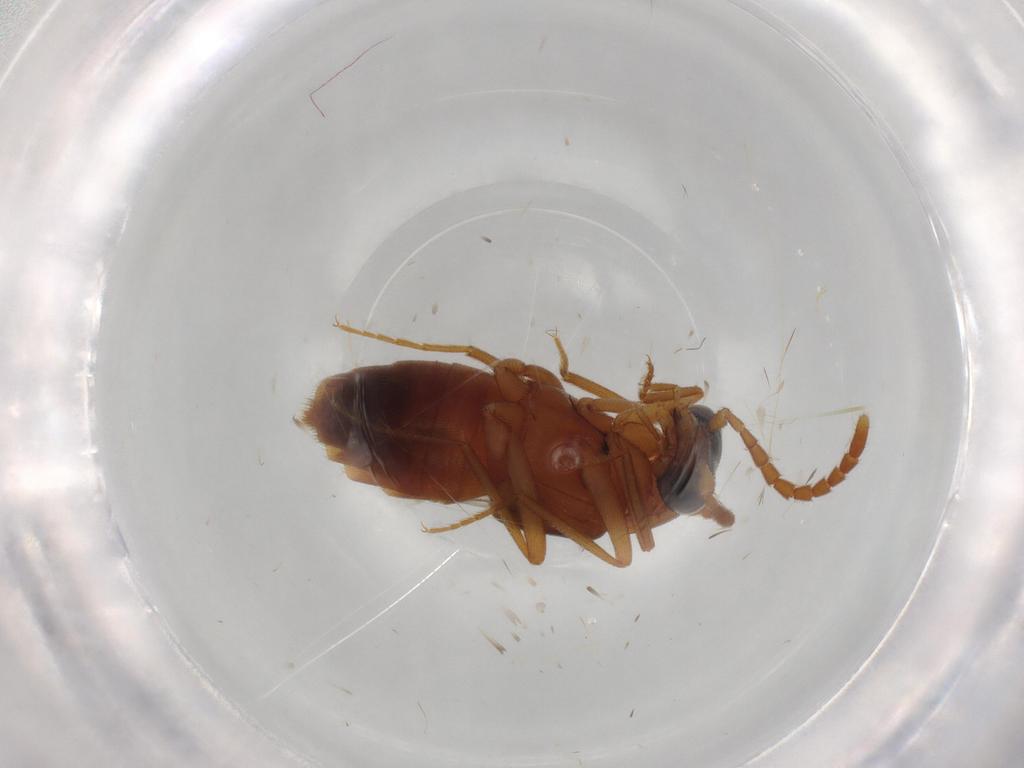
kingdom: Animalia
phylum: Arthropoda
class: Insecta
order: Coleoptera
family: Staphylinidae
